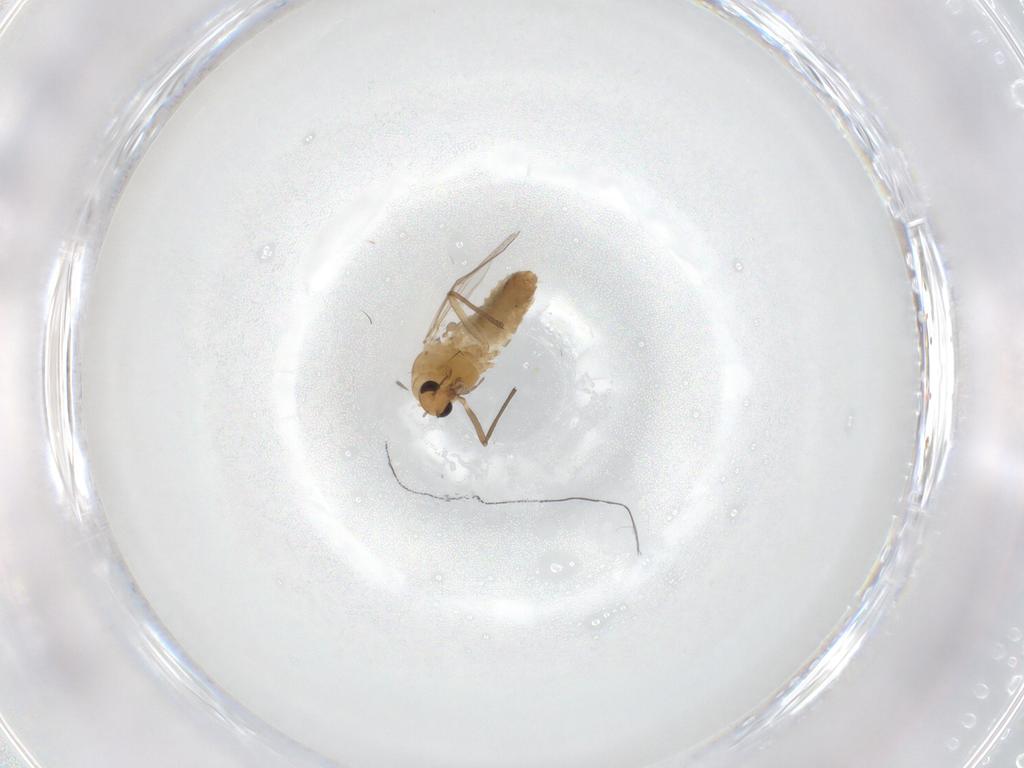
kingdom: Animalia
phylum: Arthropoda
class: Insecta
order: Diptera
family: Chironomidae
